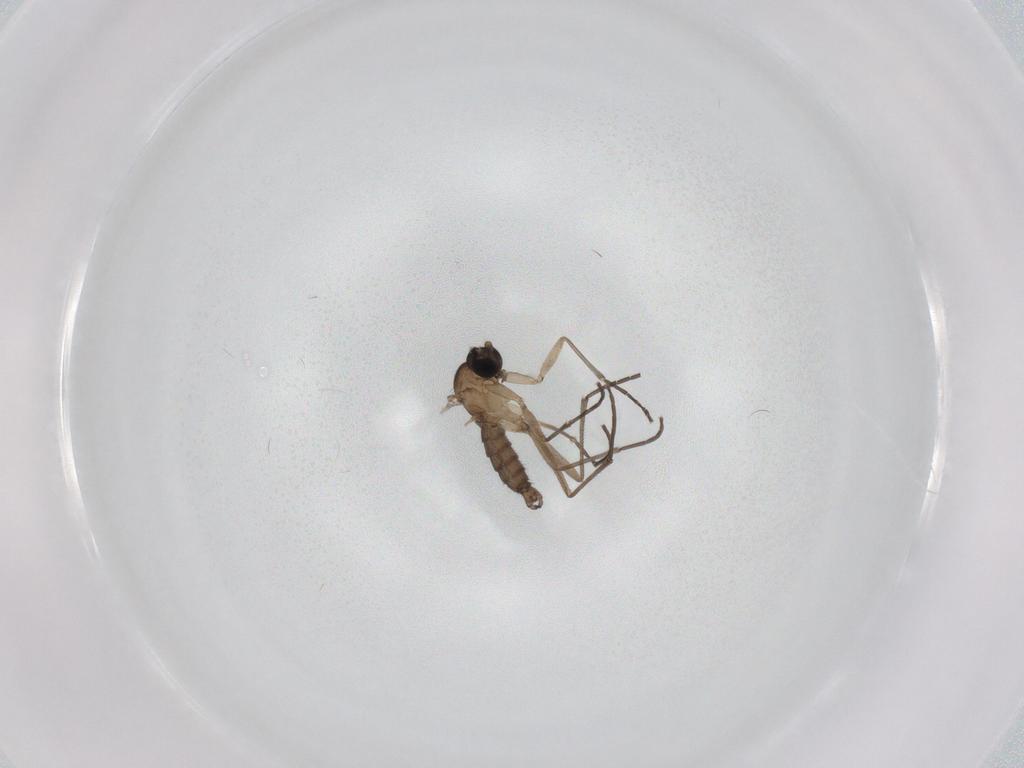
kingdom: Animalia
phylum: Arthropoda
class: Insecta
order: Diptera
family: Sciaridae
